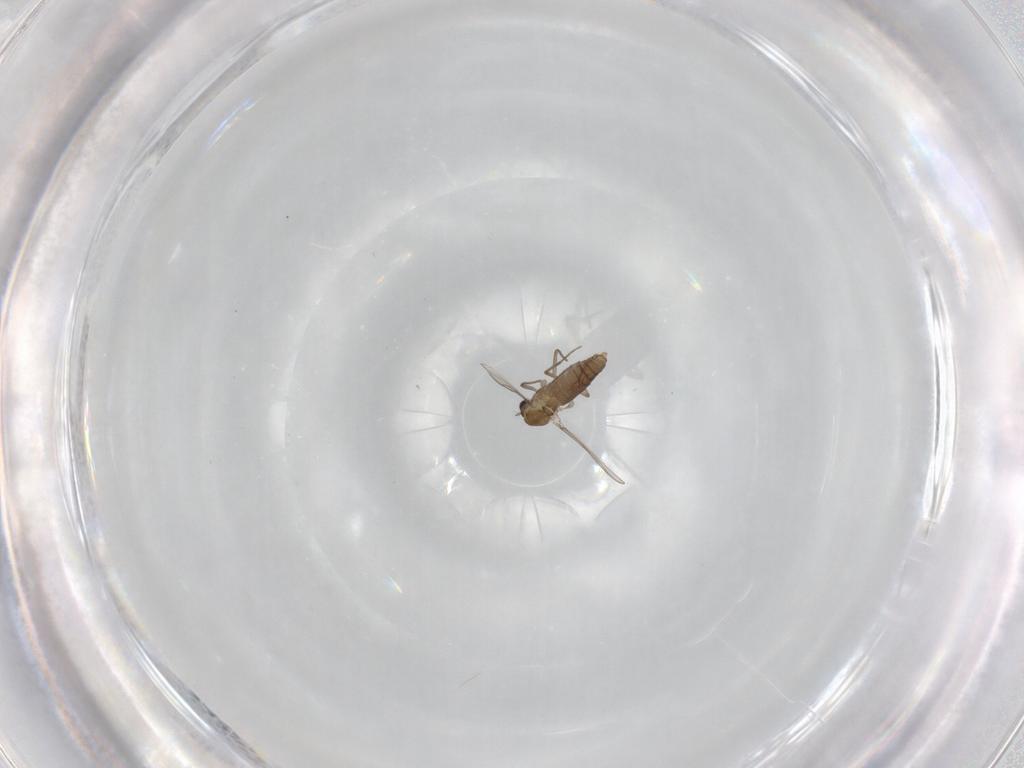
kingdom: Animalia
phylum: Arthropoda
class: Insecta
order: Diptera
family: Chironomidae
